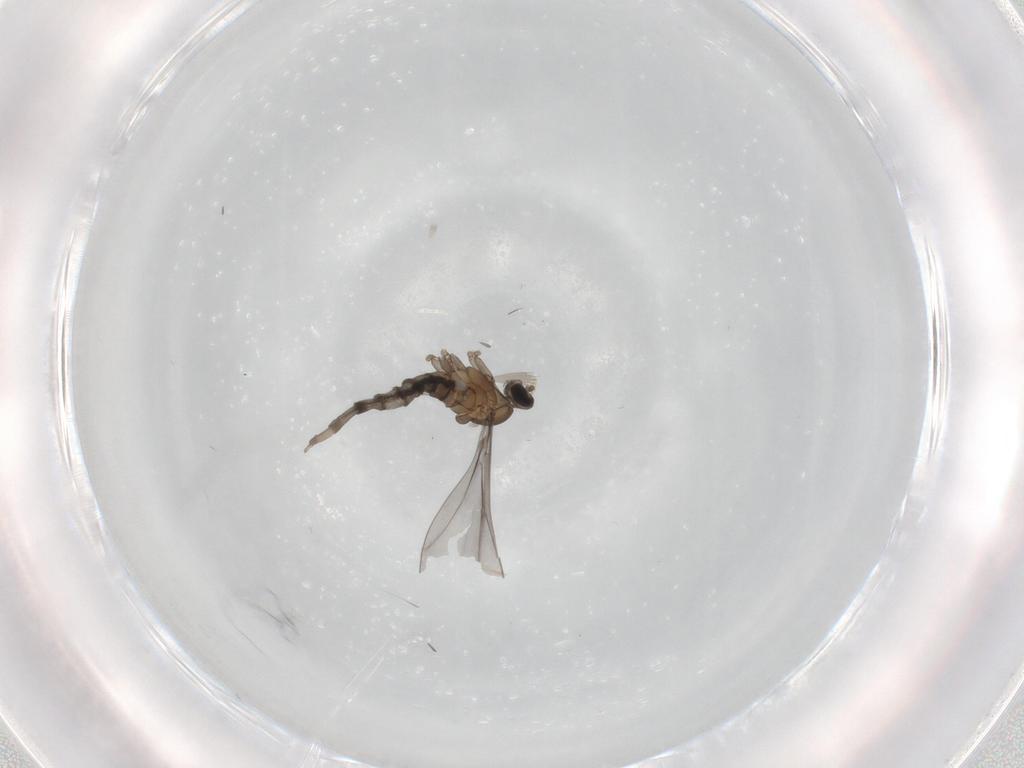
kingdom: Animalia
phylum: Arthropoda
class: Insecta
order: Diptera
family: Cecidomyiidae
